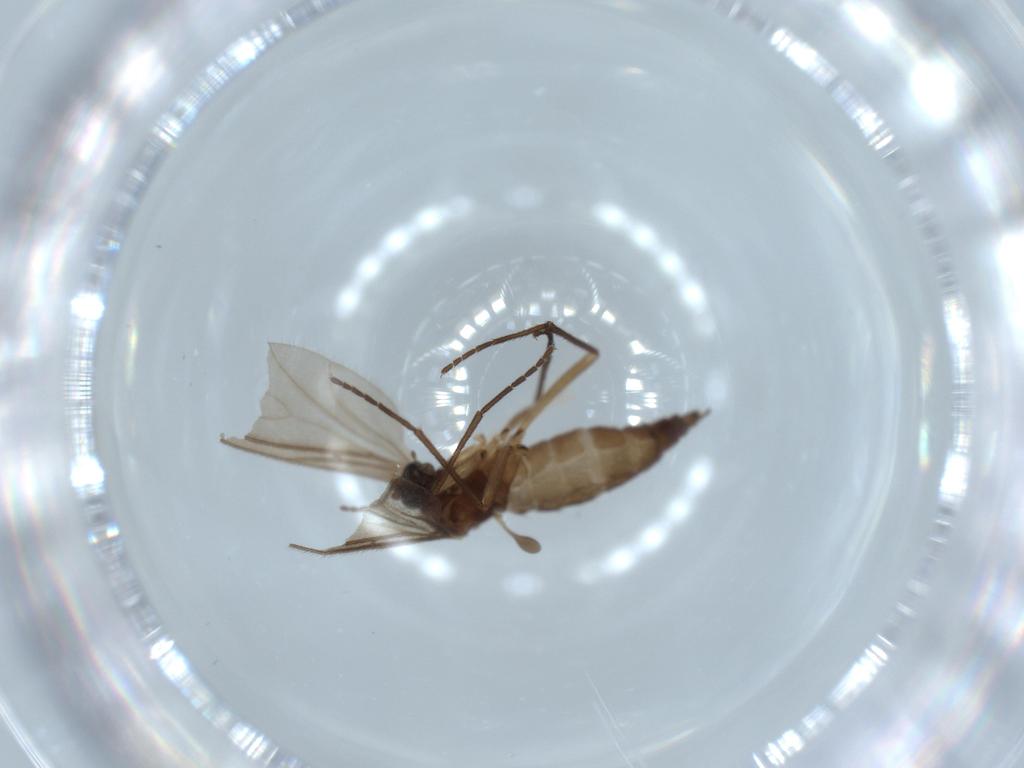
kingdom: Animalia
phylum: Arthropoda
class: Insecta
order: Diptera
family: Sciaridae
